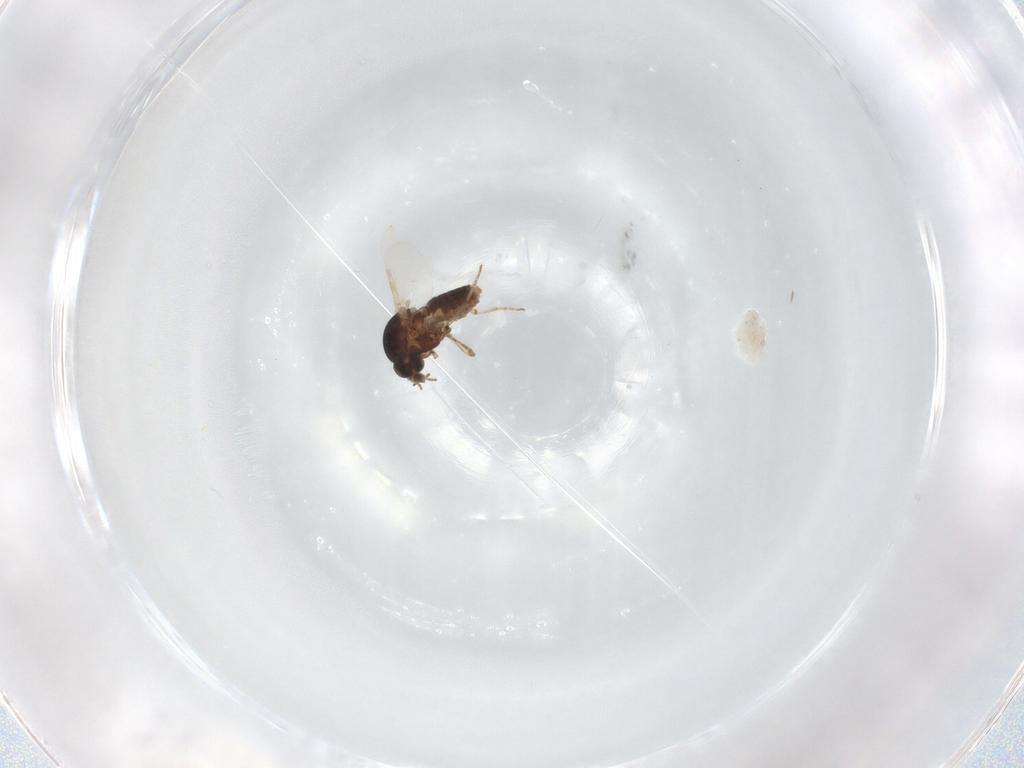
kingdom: Animalia
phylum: Arthropoda
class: Insecta
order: Diptera
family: Ceratopogonidae
